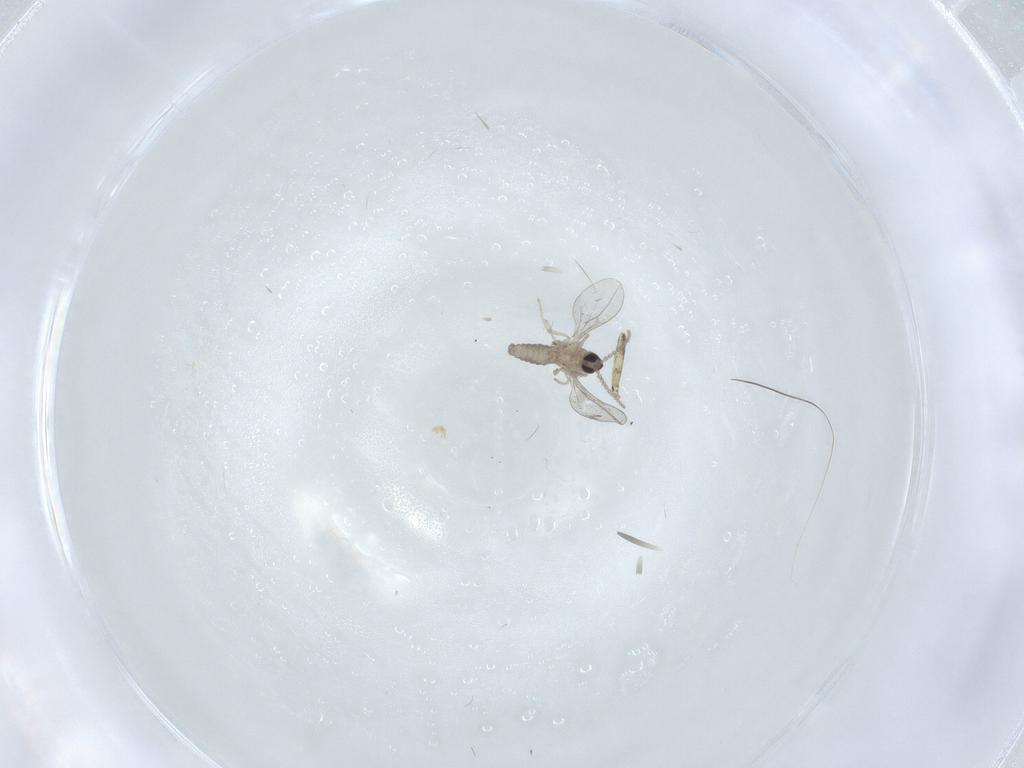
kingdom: Animalia
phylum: Arthropoda
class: Insecta
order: Diptera
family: Cecidomyiidae
